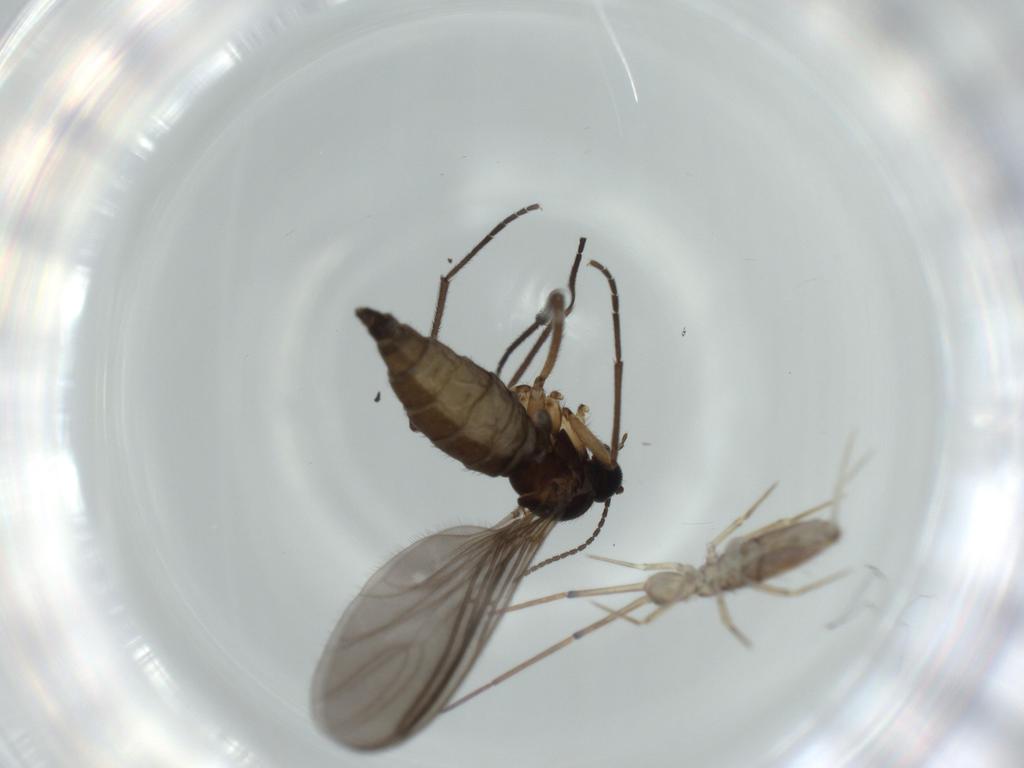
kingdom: Animalia
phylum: Arthropoda
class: Insecta
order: Diptera
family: Sciaridae
